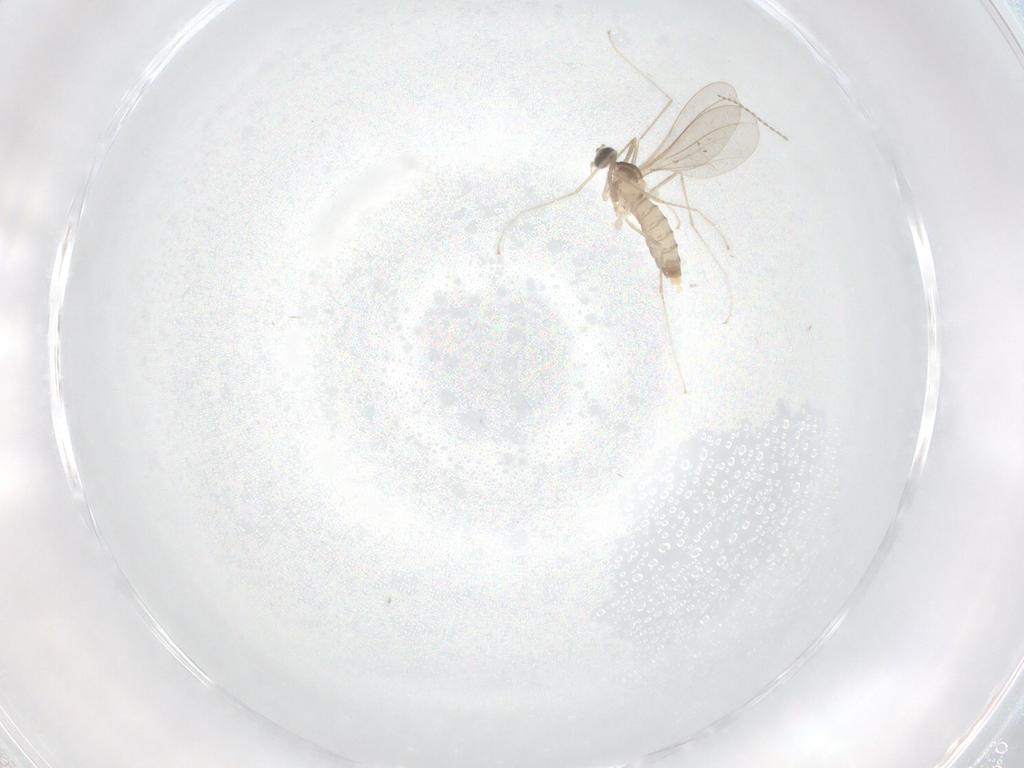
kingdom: Animalia
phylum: Arthropoda
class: Insecta
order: Diptera
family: Cecidomyiidae
